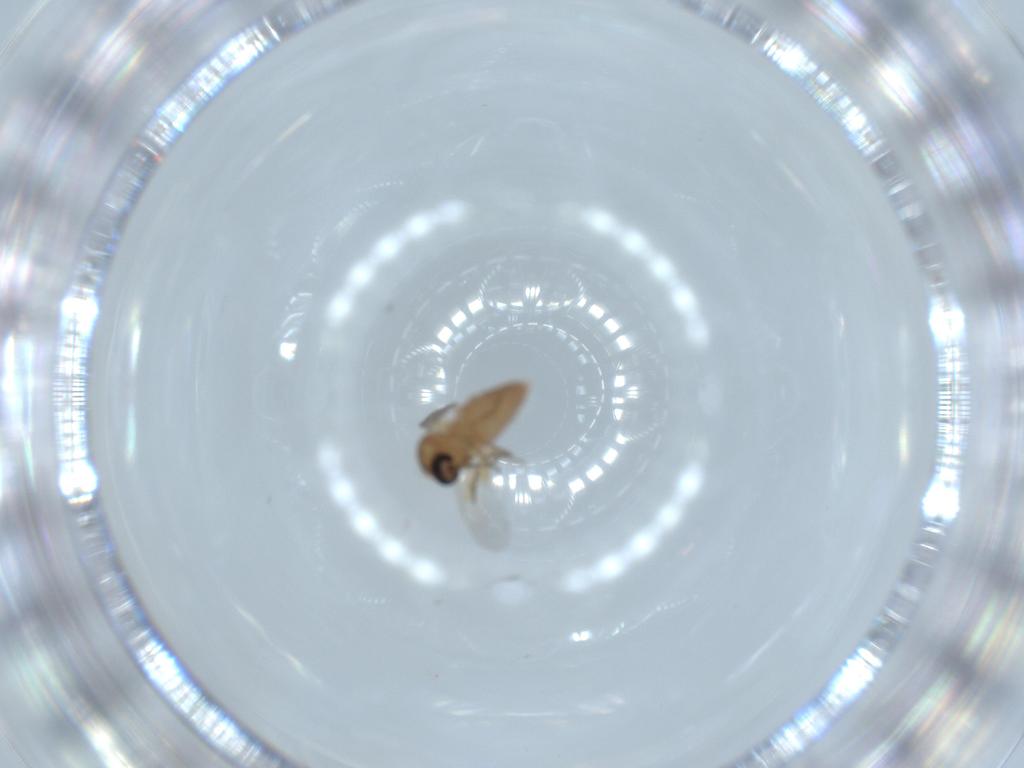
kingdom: Animalia
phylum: Arthropoda
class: Insecta
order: Diptera
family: Ceratopogonidae
